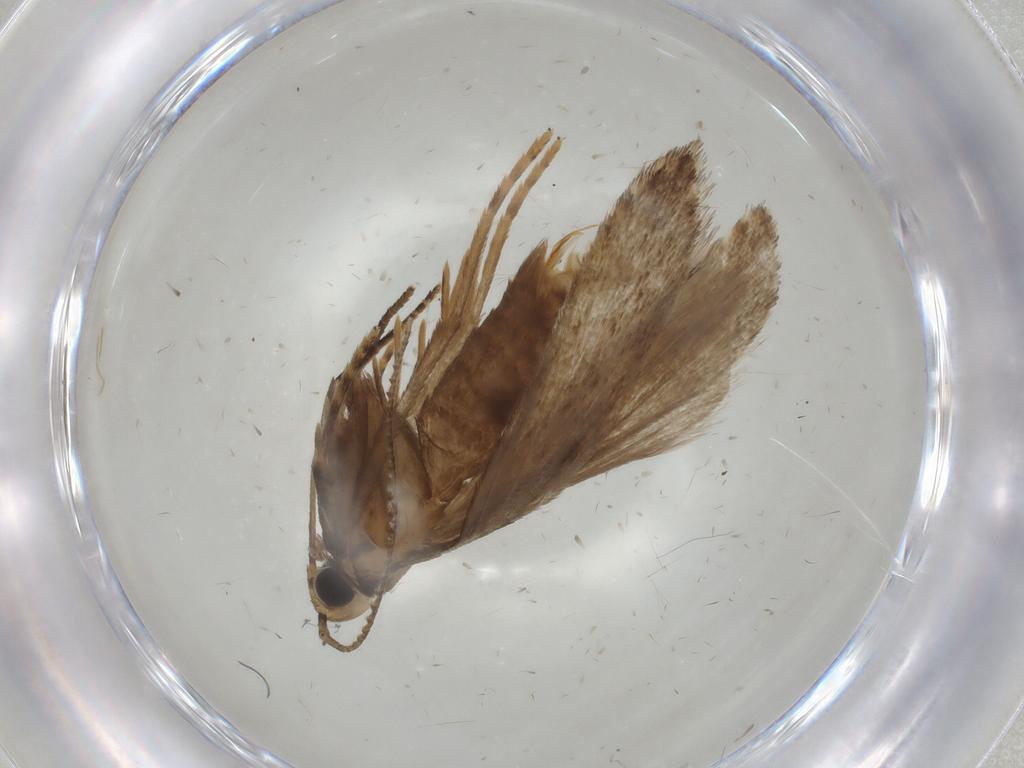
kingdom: Animalia
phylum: Arthropoda
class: Insecta
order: Lepidoptera
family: Gelechiidae
